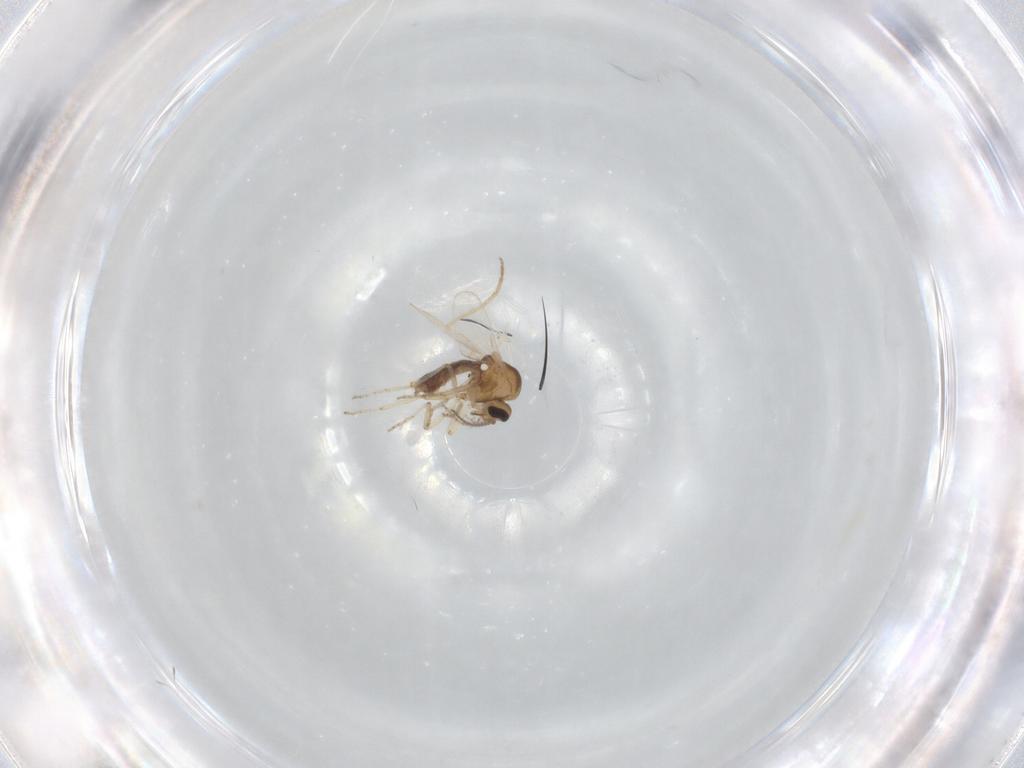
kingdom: Animalia
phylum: Arthropoda
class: Insecta
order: Diptera
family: Ceratopogonidae
